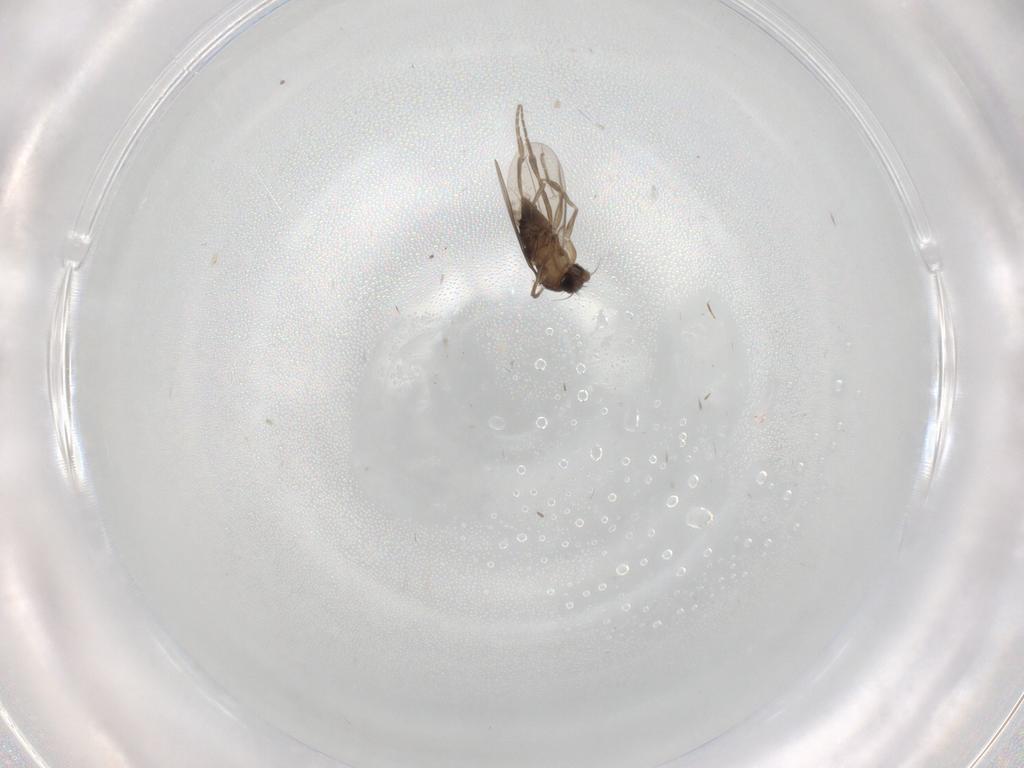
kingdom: Animalia
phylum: Arthropoda
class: Insecta
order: Diptera
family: Phoridae
